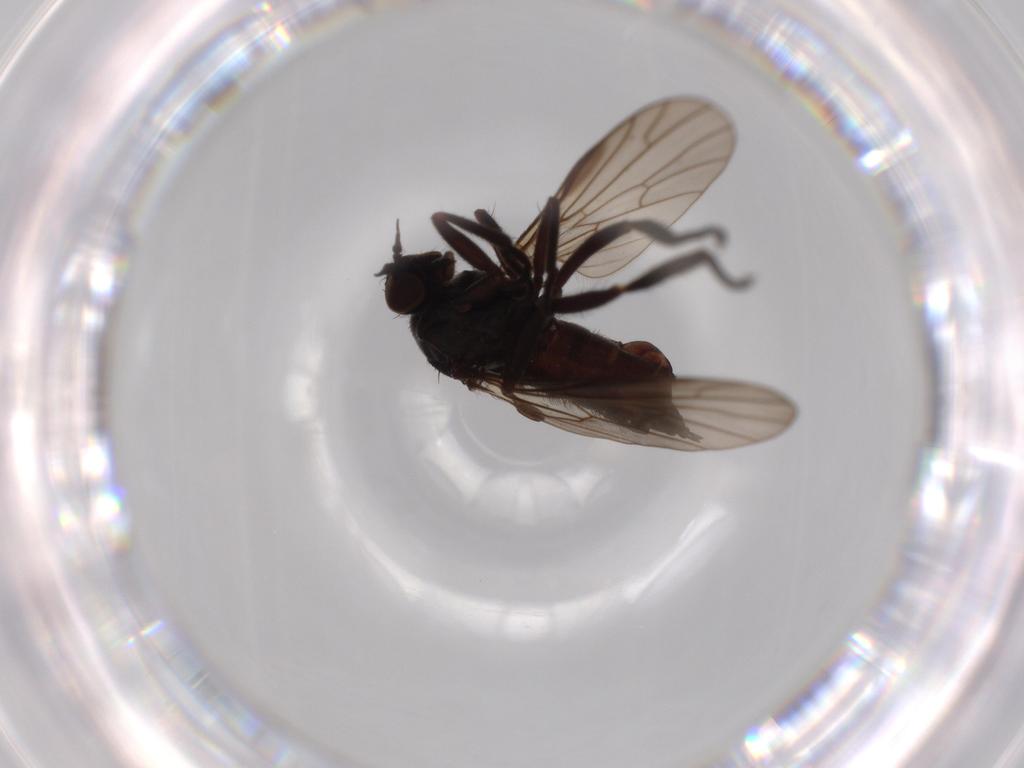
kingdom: Animalia
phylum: Arthropoda
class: Insecta
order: Diptera
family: Empididae
